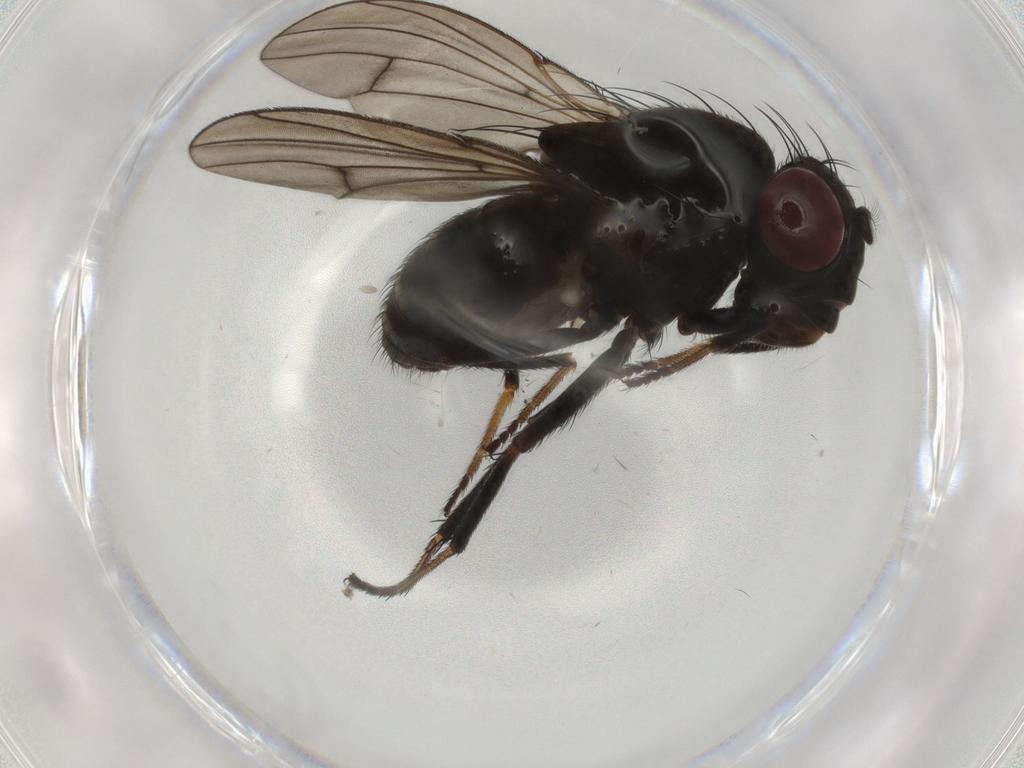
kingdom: Animalia
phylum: Arthropoda
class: Insecta
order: Diptera
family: Ephydridae
